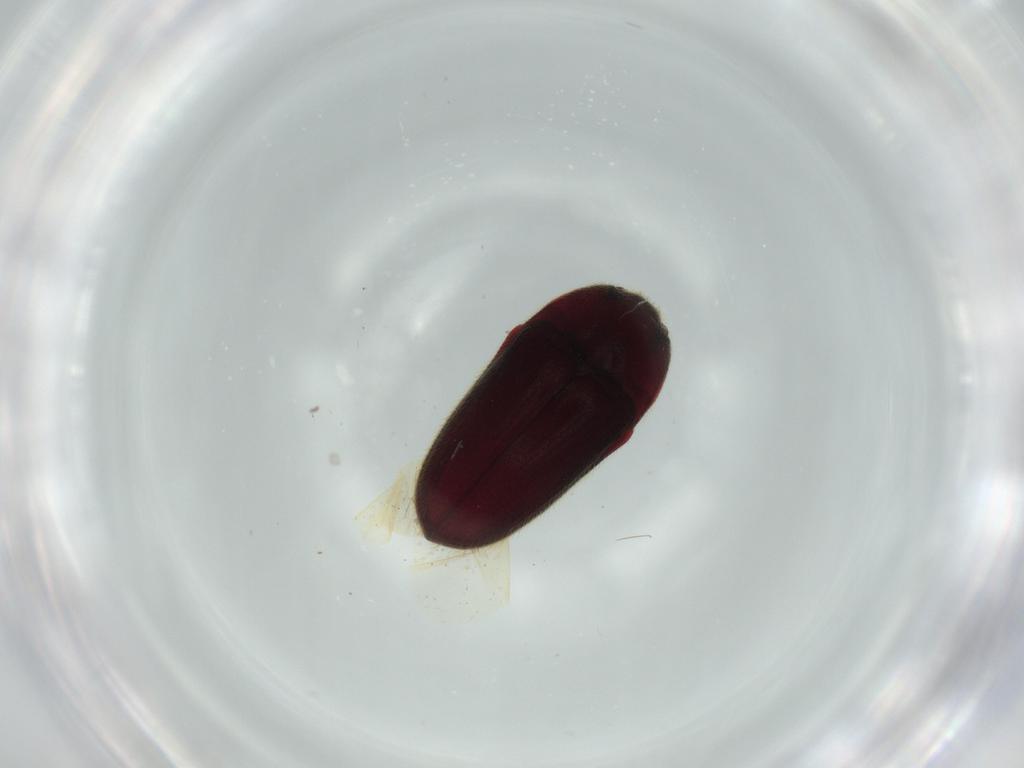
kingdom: Animalia
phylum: Arthropoda
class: Insecta
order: Coleoptera
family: Throscidae
